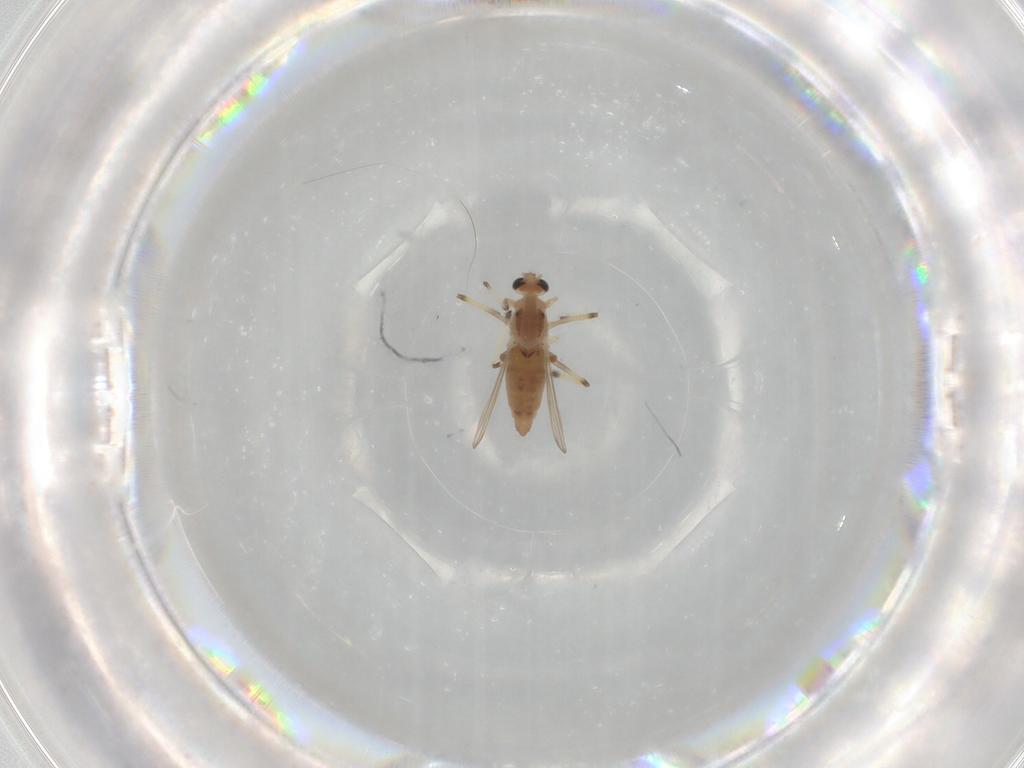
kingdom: Animalia
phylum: Arthropoda
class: Insecta
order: Diptera
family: Chironomidae
